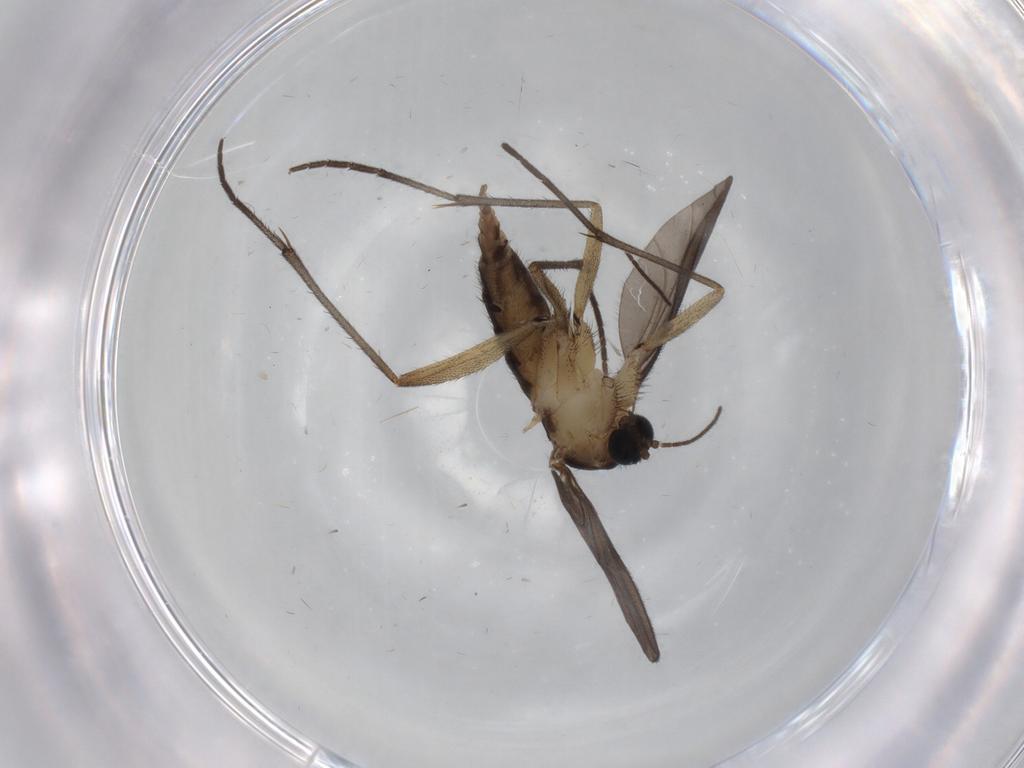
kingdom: Animalia
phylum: Arthropoda
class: Insecta
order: Diptera
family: Sciaridae
